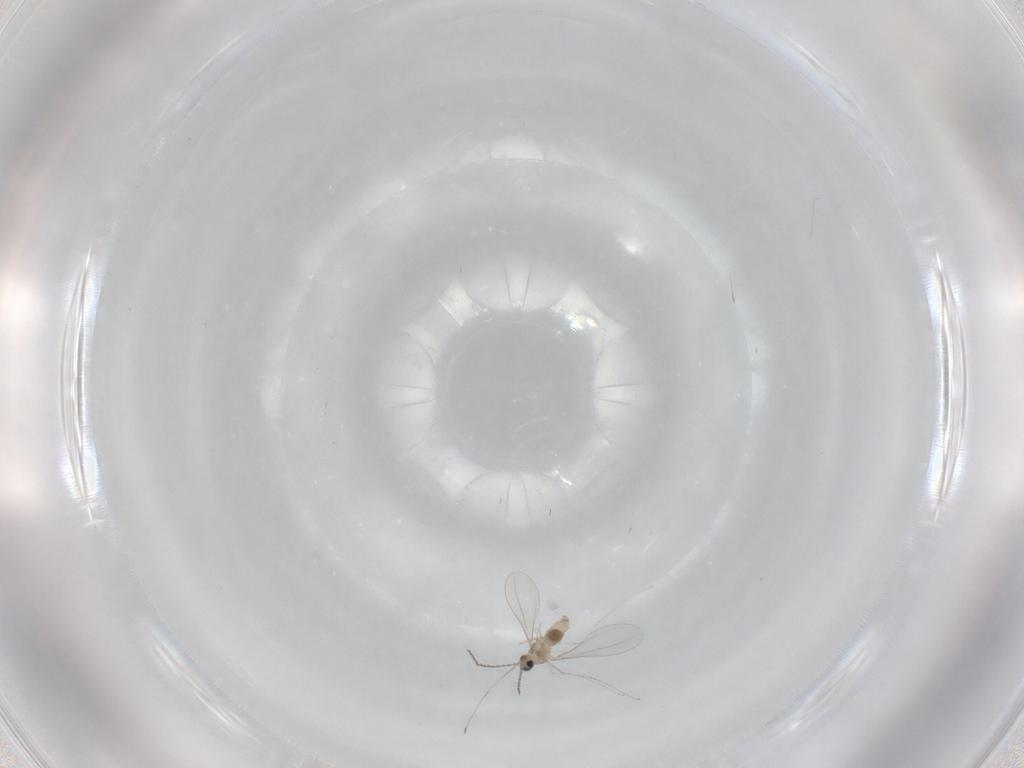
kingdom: Animalia
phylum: Arthropoda
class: Insecta
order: Diptera
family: Cecidomyiidae
